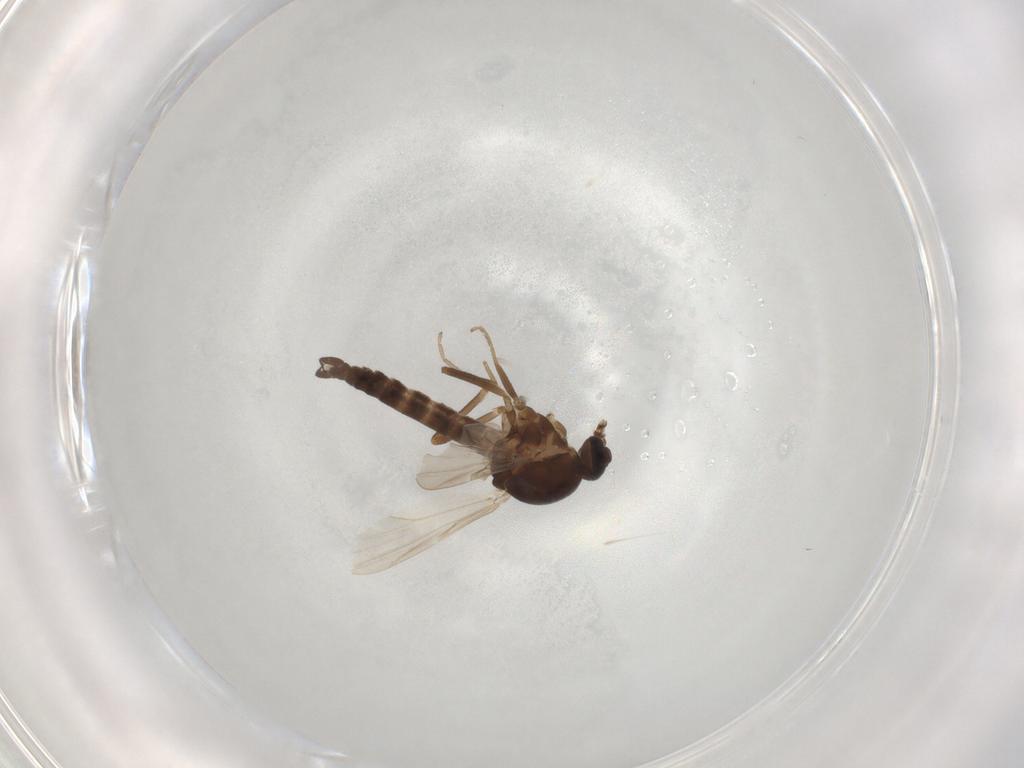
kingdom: Animalia
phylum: Arthropoda
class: Insecta
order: Diptera
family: Ceratopogonidae
